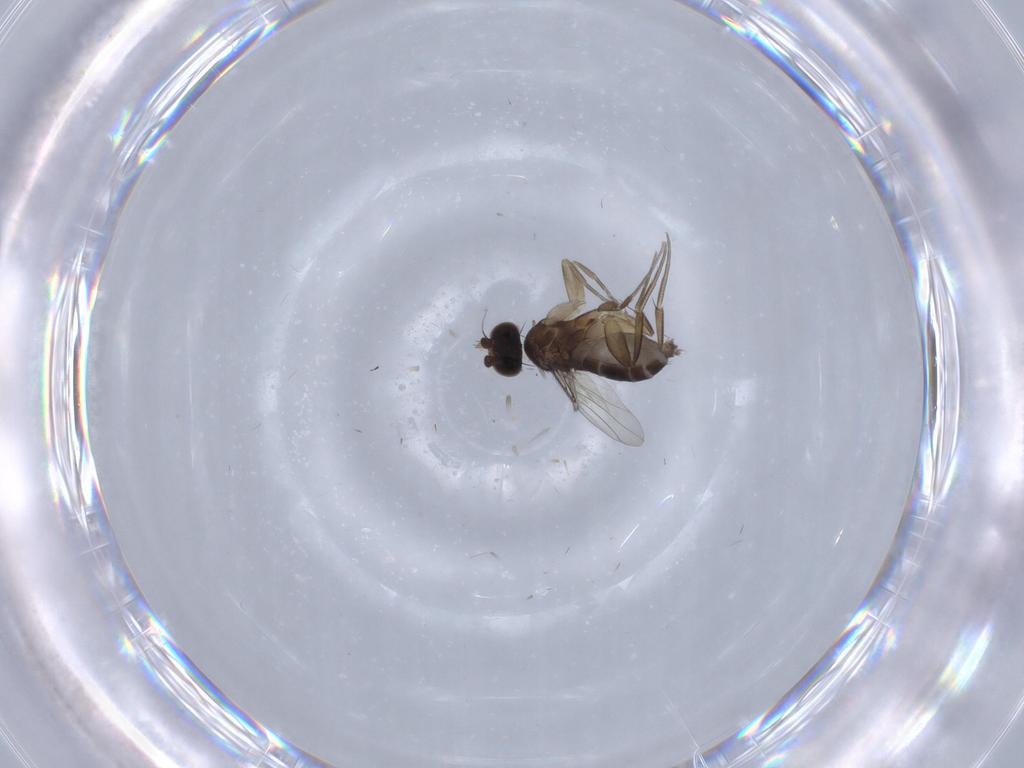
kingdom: Animalia
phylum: Arthropoda
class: Insecta
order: Diptera
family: Chironomidae
